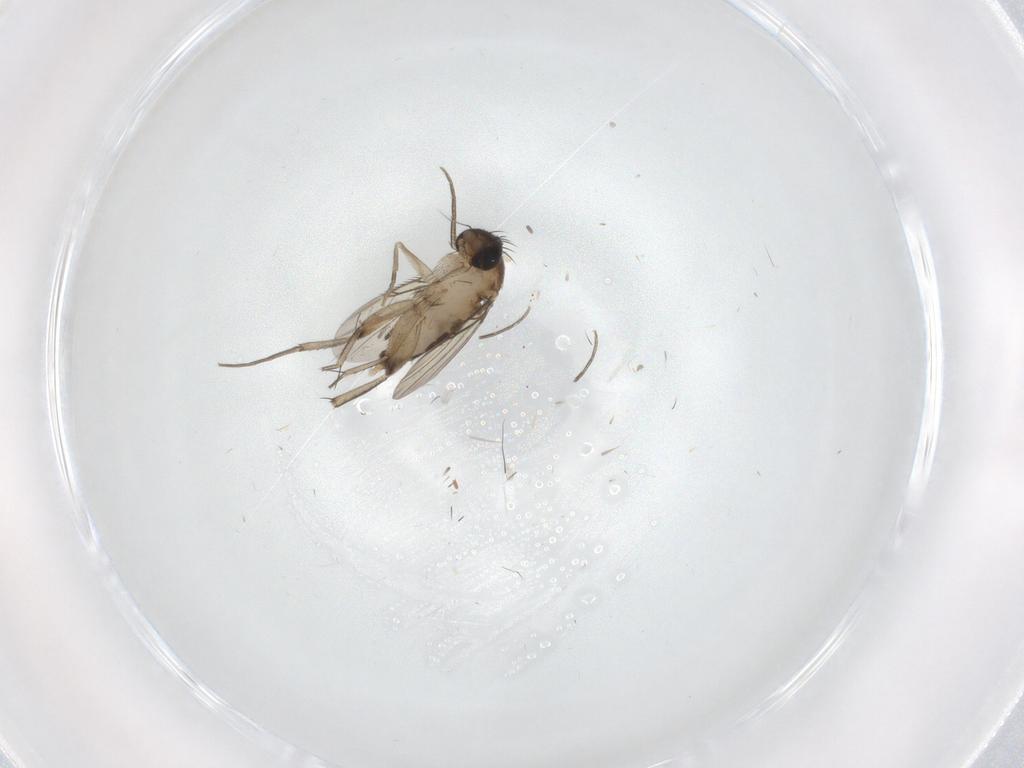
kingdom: Animalia
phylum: Arthropoda
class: Insecta
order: Diptera
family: Phoridae
